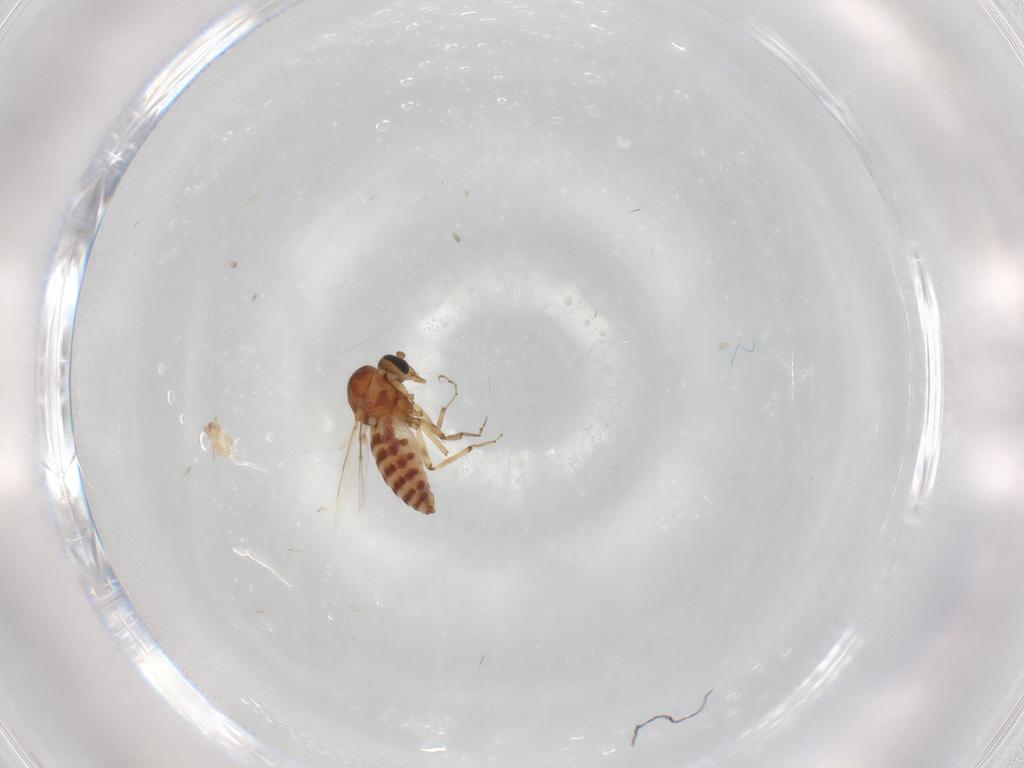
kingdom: Animalia
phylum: Arthropoda
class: Insecta
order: Diptera
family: Dolichopodidae
